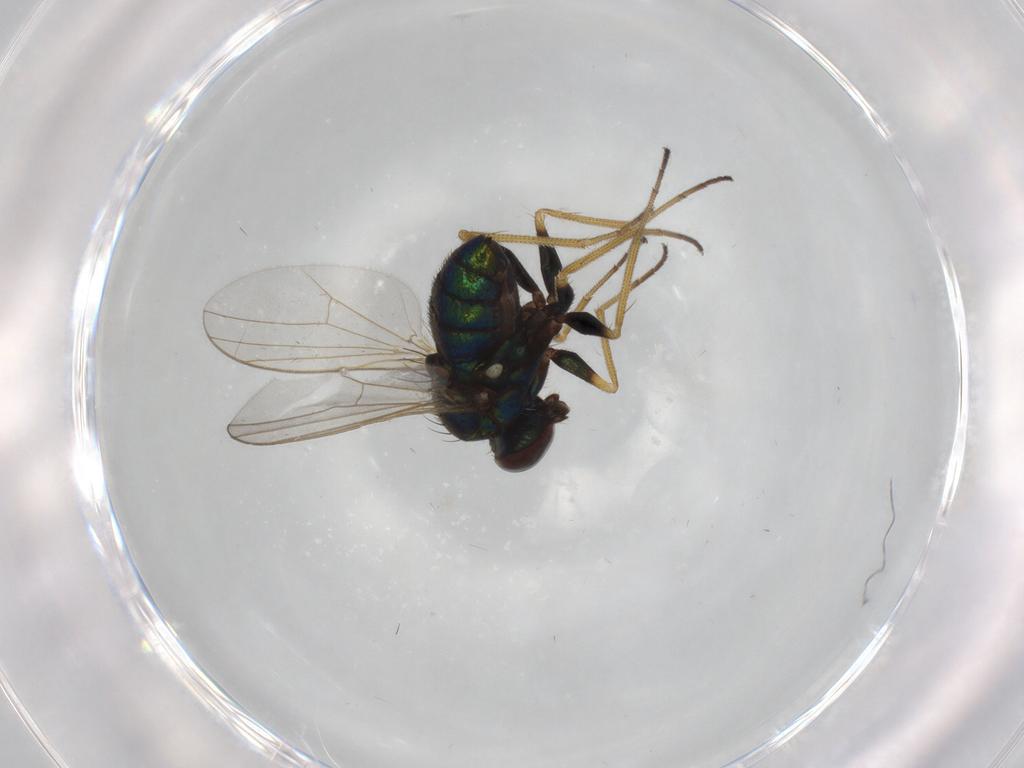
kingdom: Animalia
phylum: Arthropoda
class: Insecta
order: Diptera
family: Dolichopodidae
